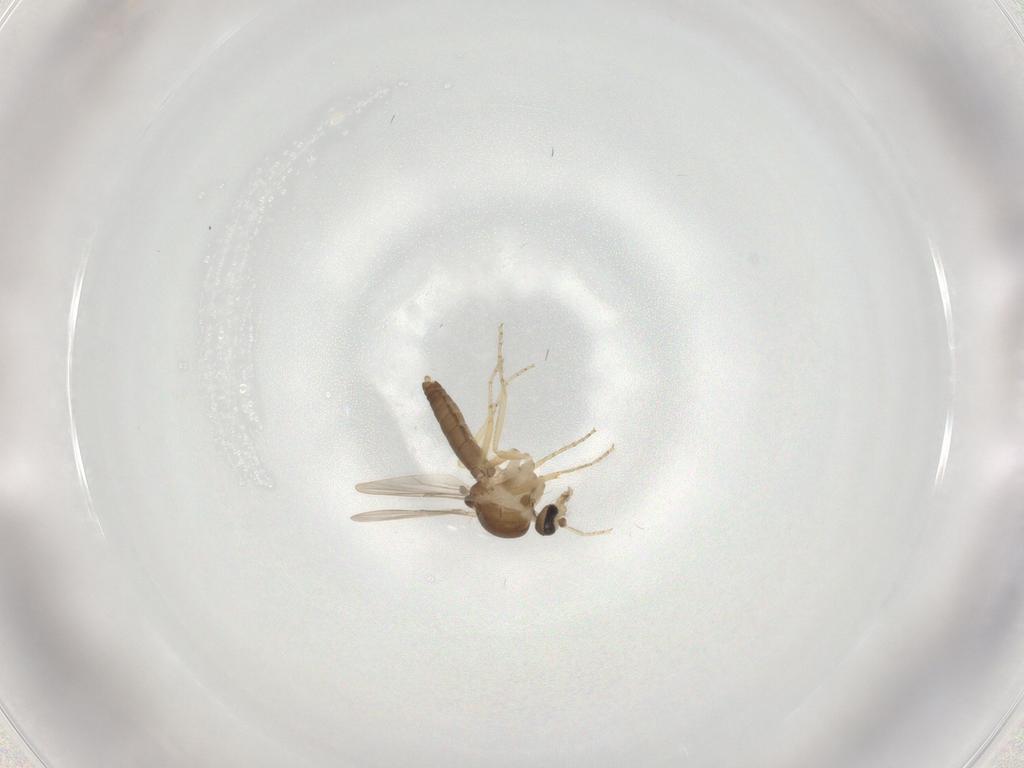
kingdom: Animalia
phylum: Arthropoda
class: Insecta
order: Diptera
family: Ceratopogonidae
